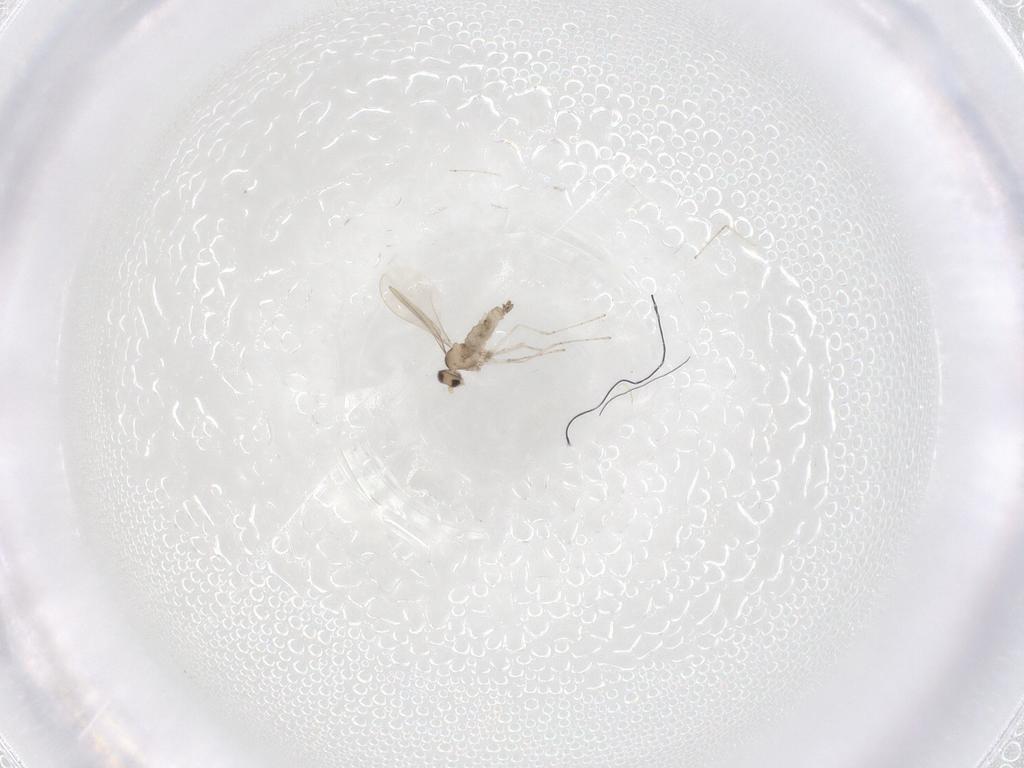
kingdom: Animalia
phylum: Arthropoda
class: Insecta
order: Diptera
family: Cecidomyiidae
